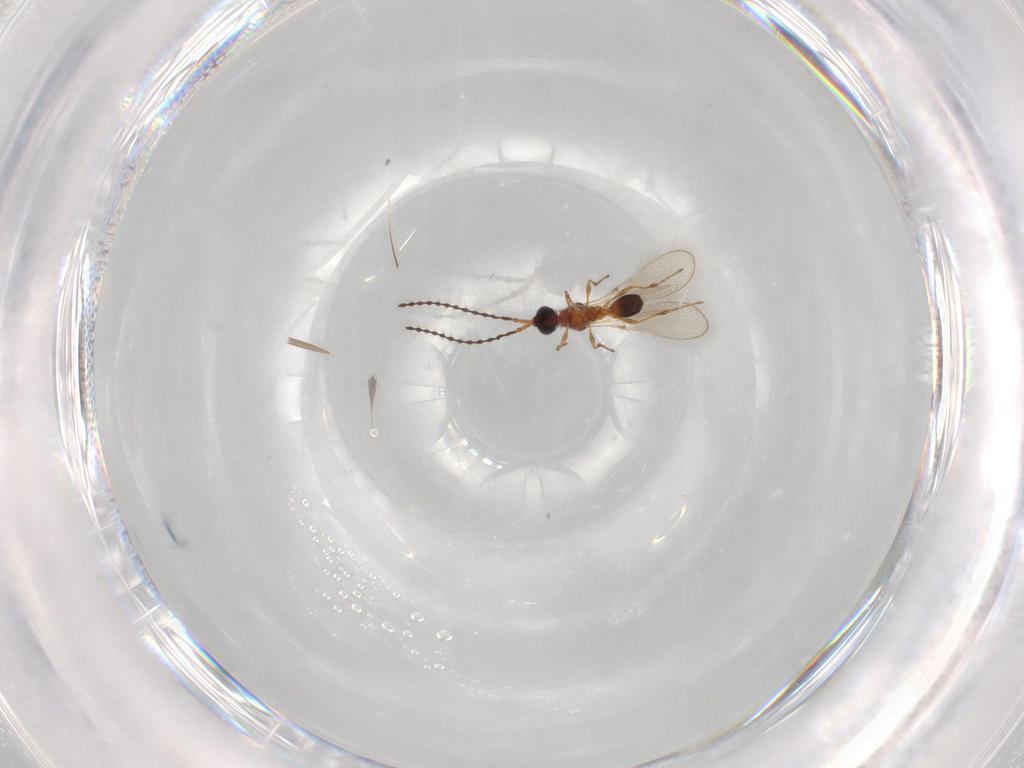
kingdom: Animalia
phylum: Arthropoda
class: Insecta
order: Hymenoptera
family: Diapriidae
